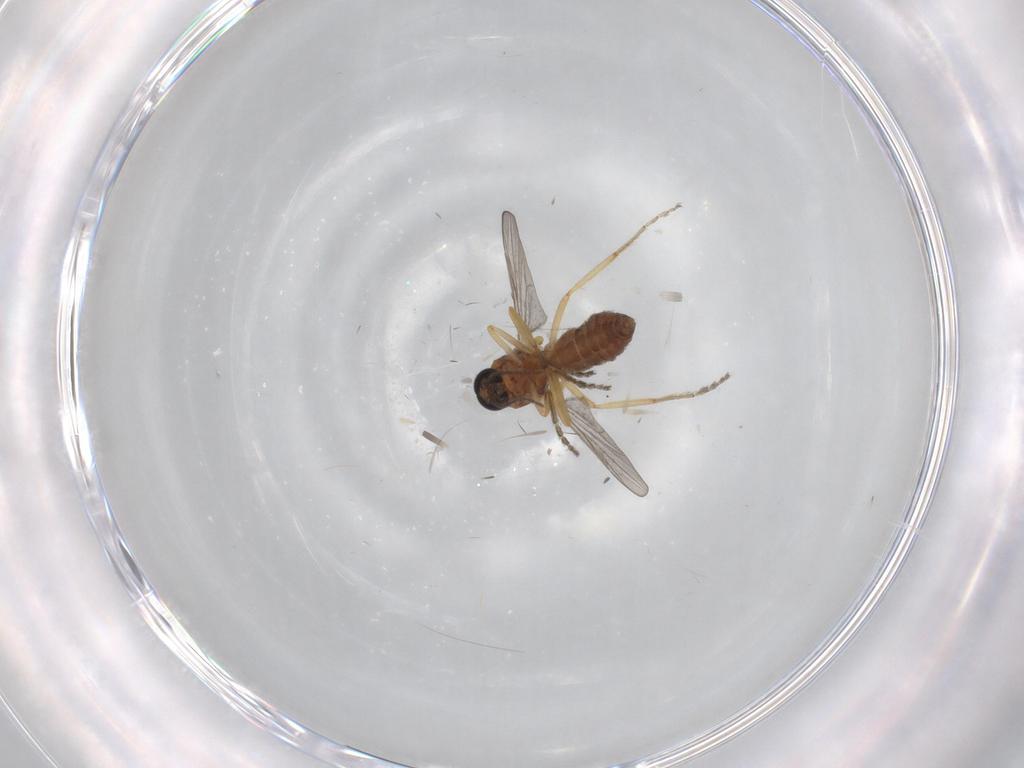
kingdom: Animalia
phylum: Arthropoda
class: Insecta
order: Diptera
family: Ceratopogonidae
